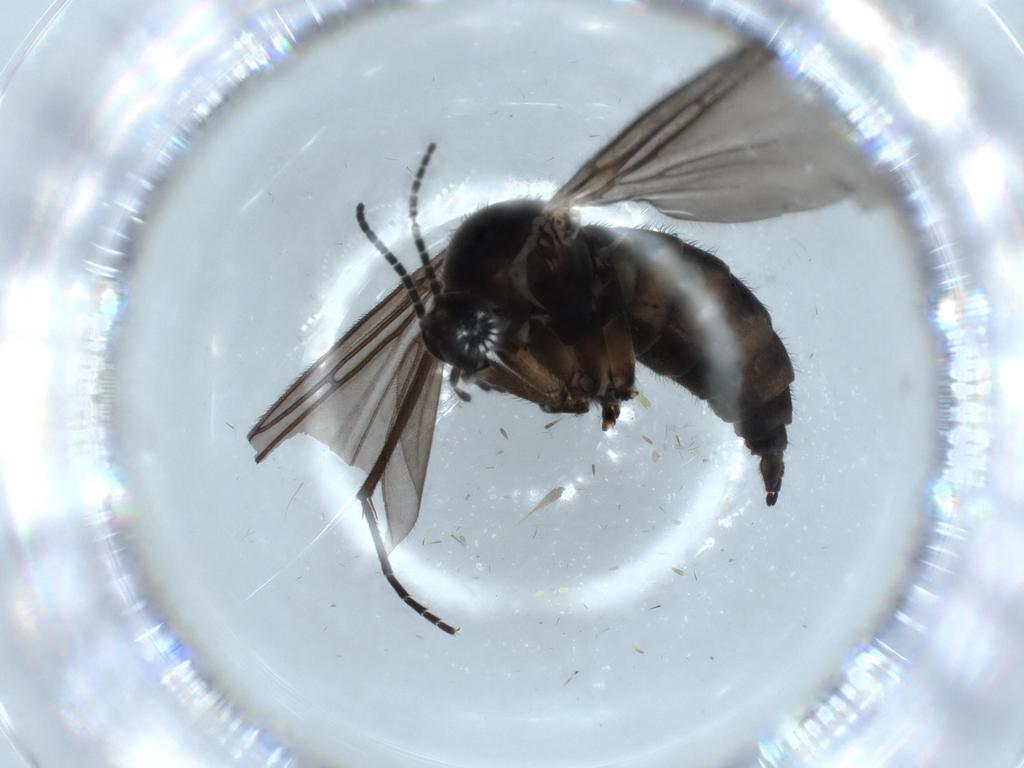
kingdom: Animalia
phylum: Arthropoda
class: Insecta
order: Diptera
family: Sciaridae
